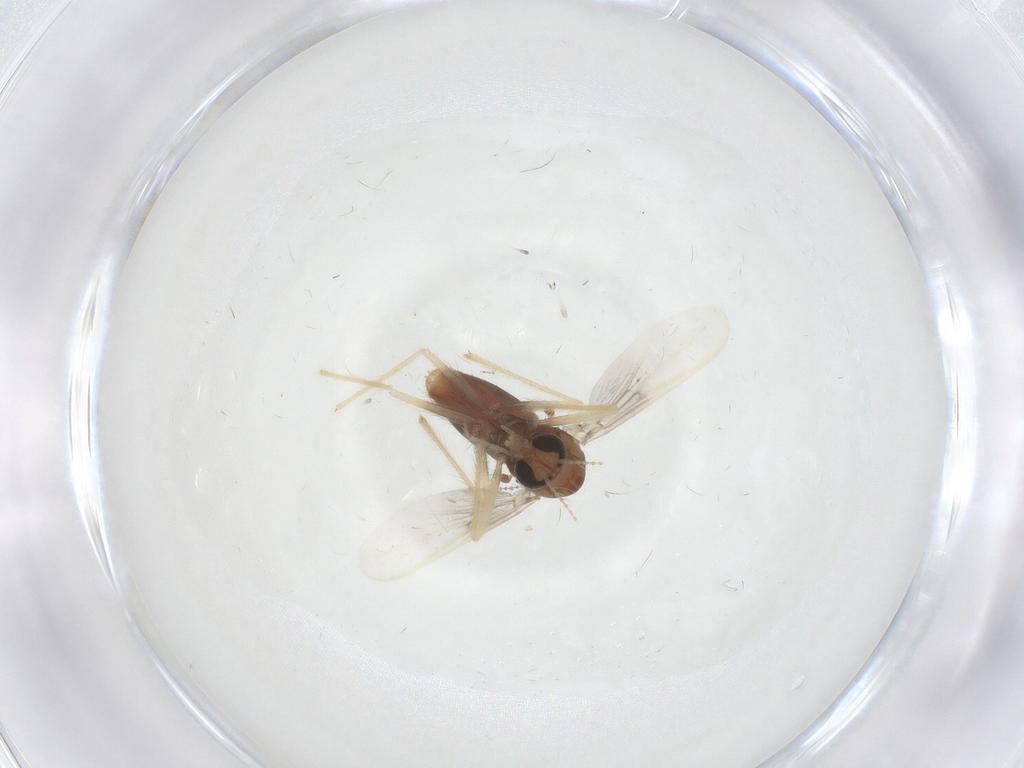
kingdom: Animalia
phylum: Arthropoda
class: Insecta
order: Diptera
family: Chironomidae
